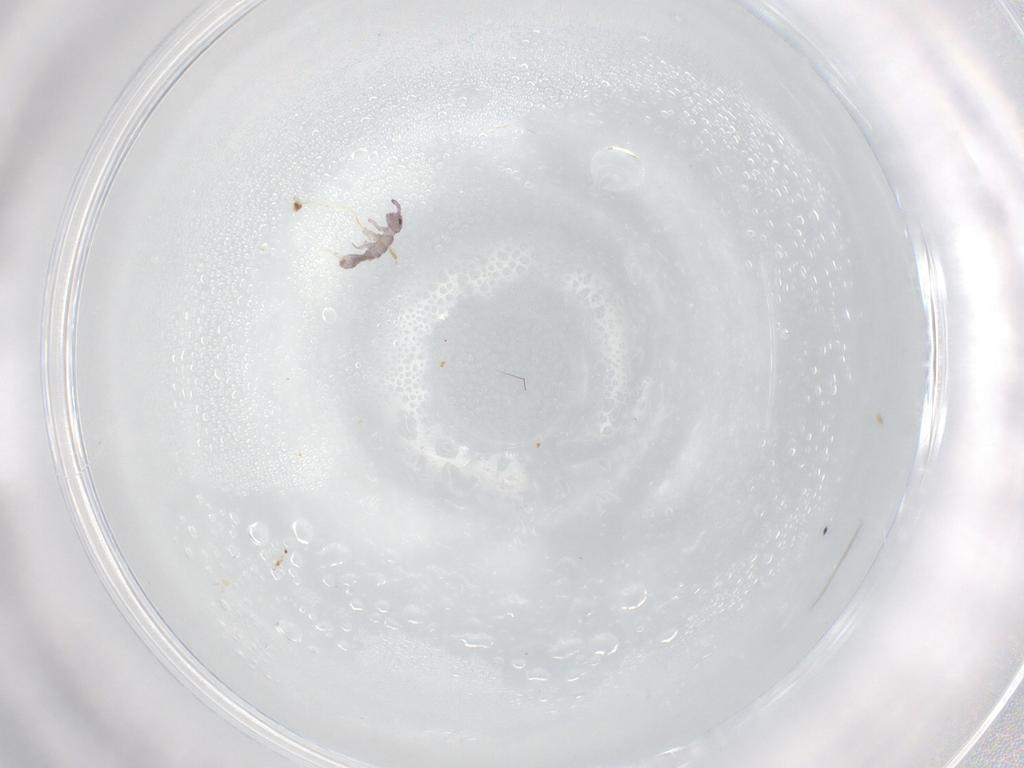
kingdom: Animalia
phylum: Arthropoda
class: Collembola
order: Entomobryomorpha
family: Isotomidae
